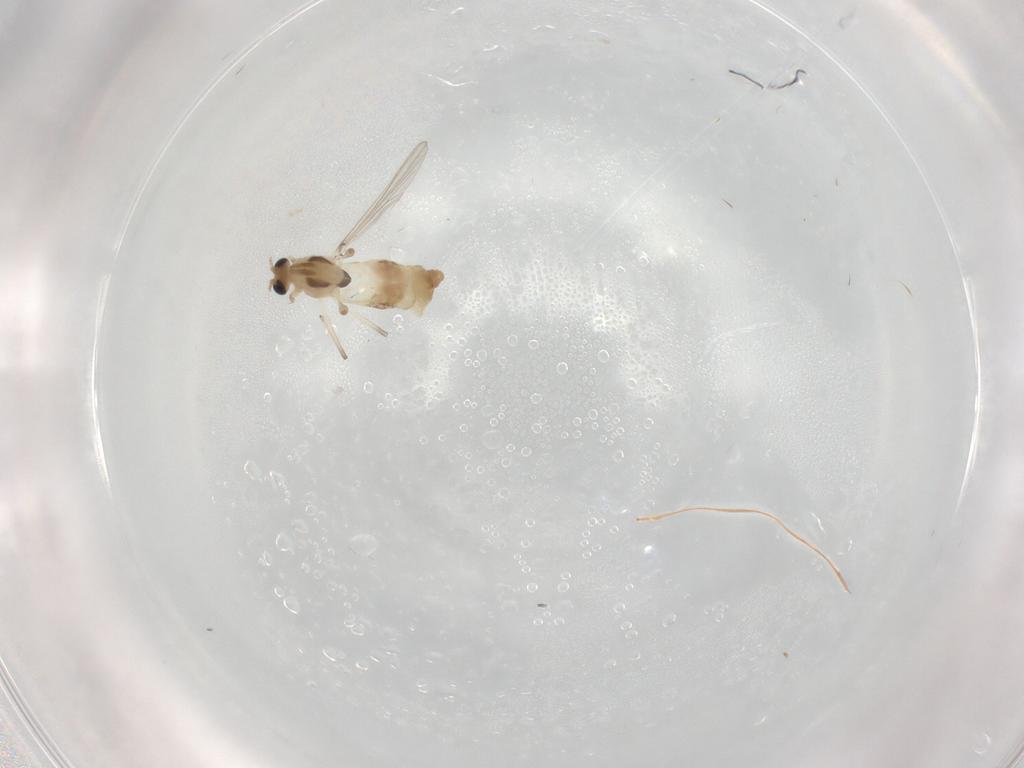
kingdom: Animalia
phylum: Arthropoda
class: Insecta
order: Diptera
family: Chironomidae
